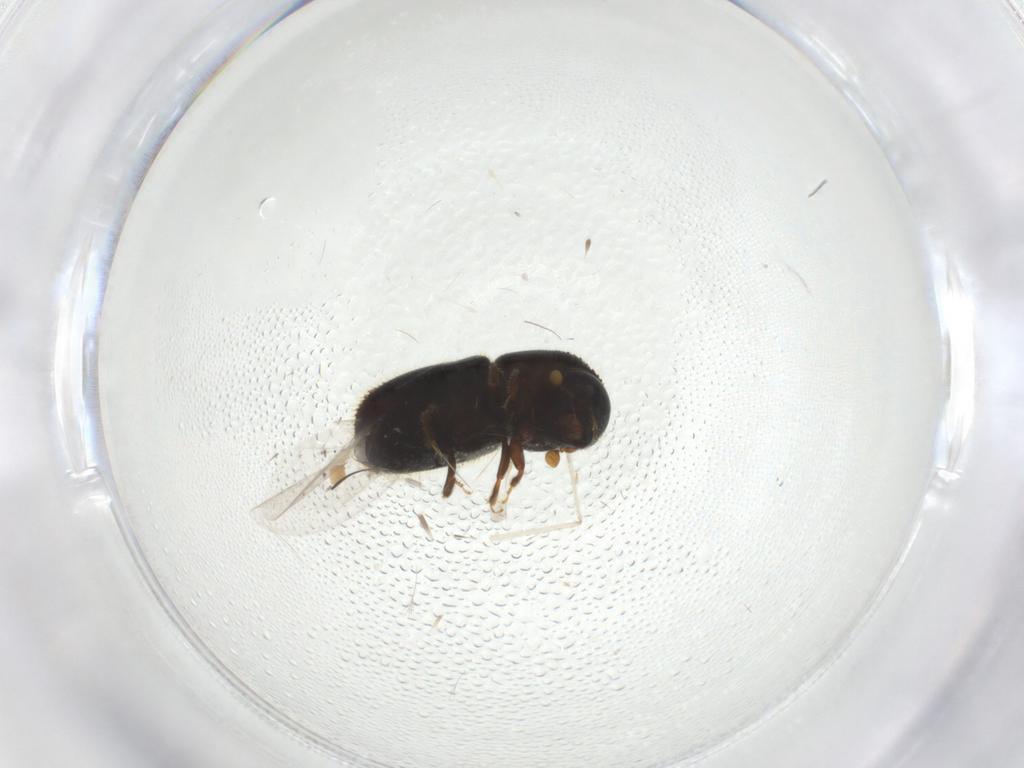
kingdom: Animalia
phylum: Arthropoda
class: Insecta
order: Coleoptera
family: Curculionidae
